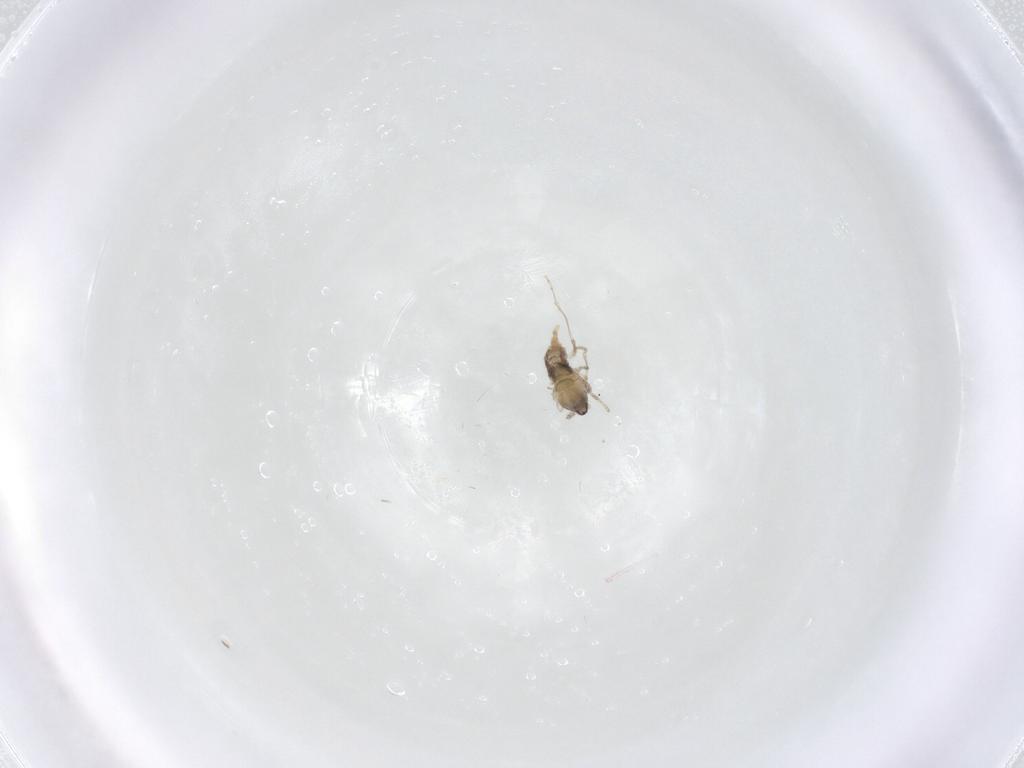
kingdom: Animalia
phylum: Arthropoda
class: Insecta
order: Diptera
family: Cecidomyiidae
